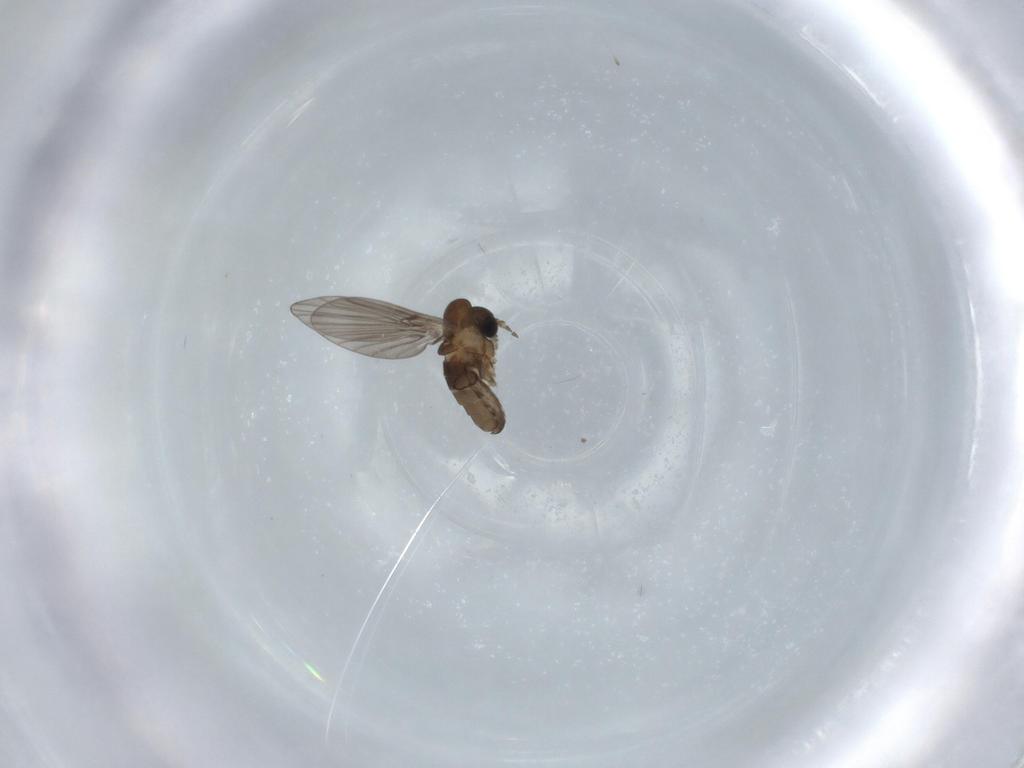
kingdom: Animalia
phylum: Arthropoda
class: Insecta
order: Diptera
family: Psychodidae
